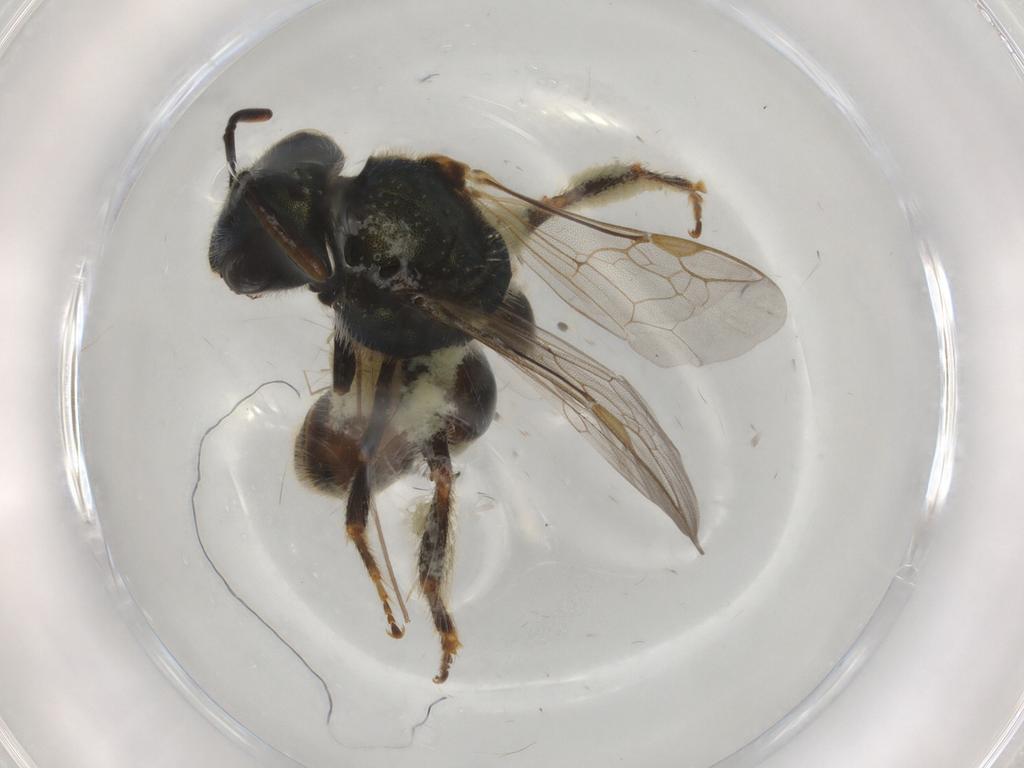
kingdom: Animalia
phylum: Arthropoda
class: Insecta
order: Hymenoptera
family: Halictidae
